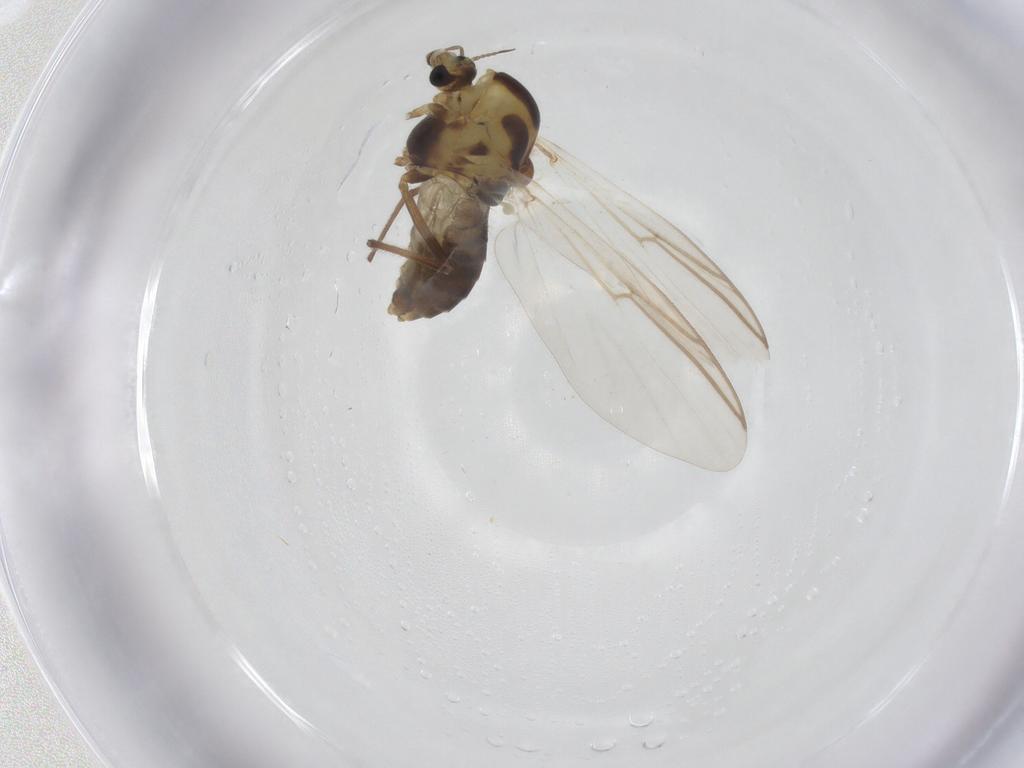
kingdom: Animalia
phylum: Arthropoda
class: Insecta
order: Diptera
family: Chironomidae
